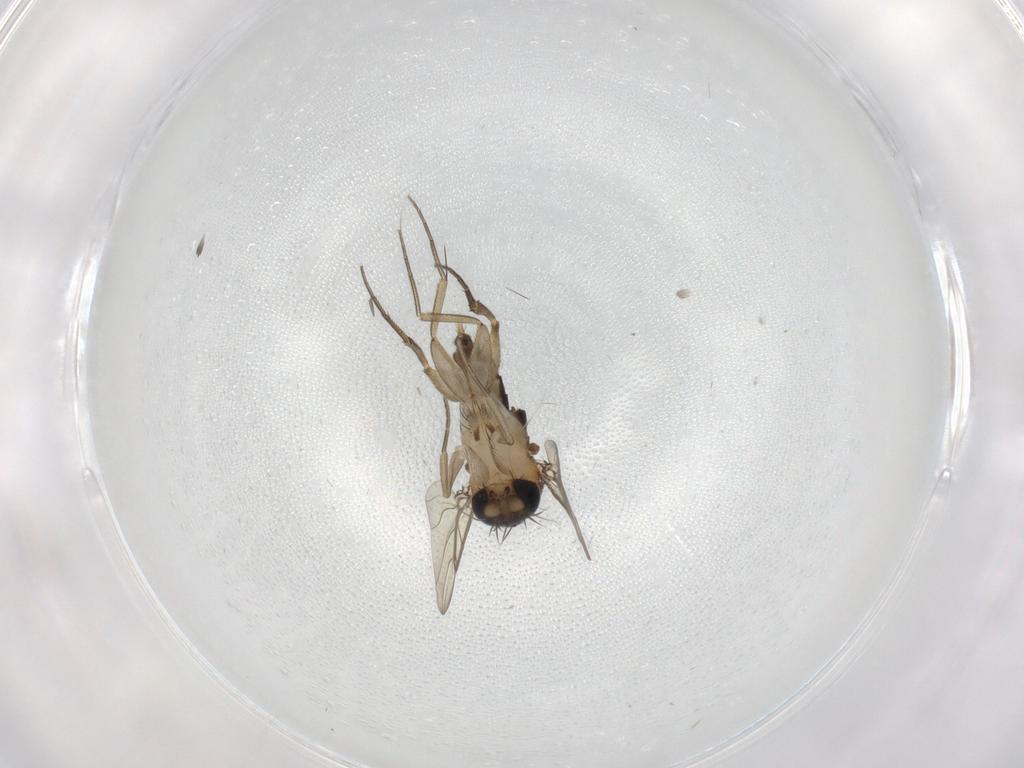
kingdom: Animalia
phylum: Arthropoda
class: Insecta
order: Diptera
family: Phoridae
